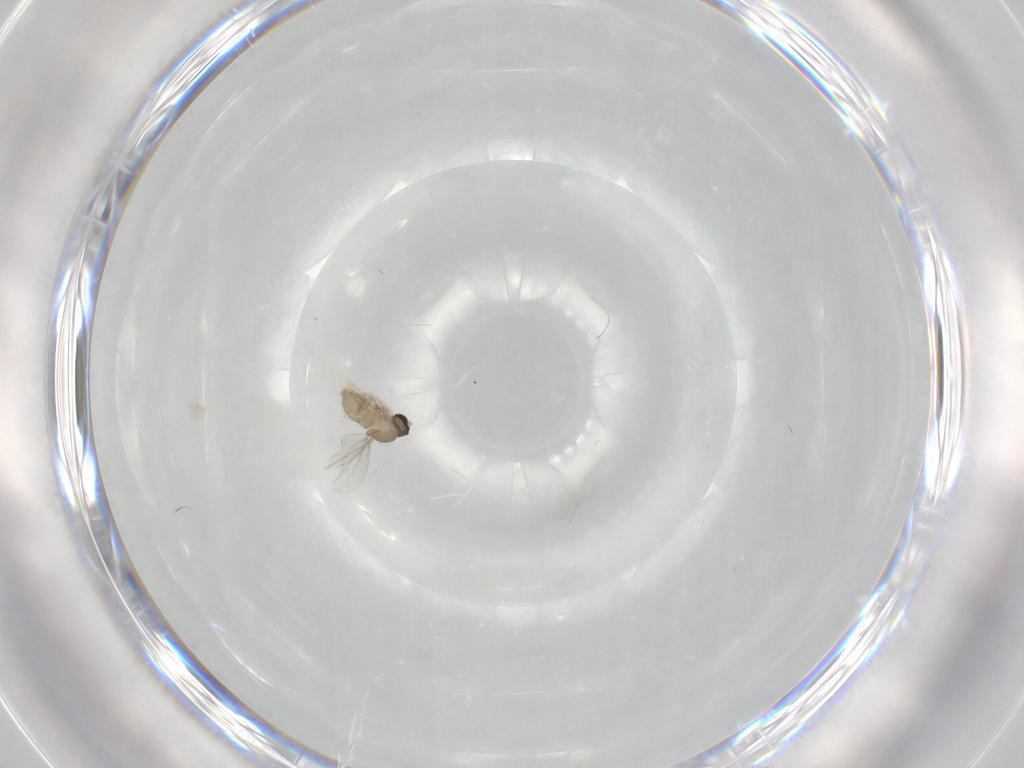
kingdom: Animalia
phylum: Arthropoda
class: Insecta
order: Diptera
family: Cecidomyiidae
